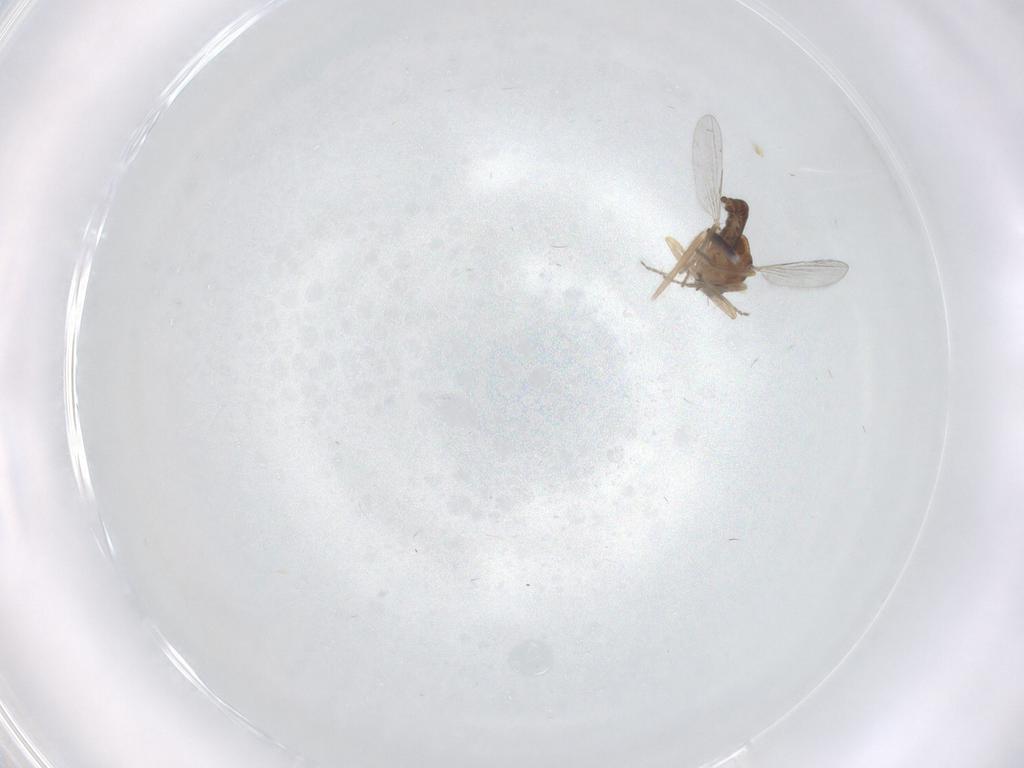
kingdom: Animalia
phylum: Arthropoda
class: Insecta
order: Diptera
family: Ceratopogonidae
